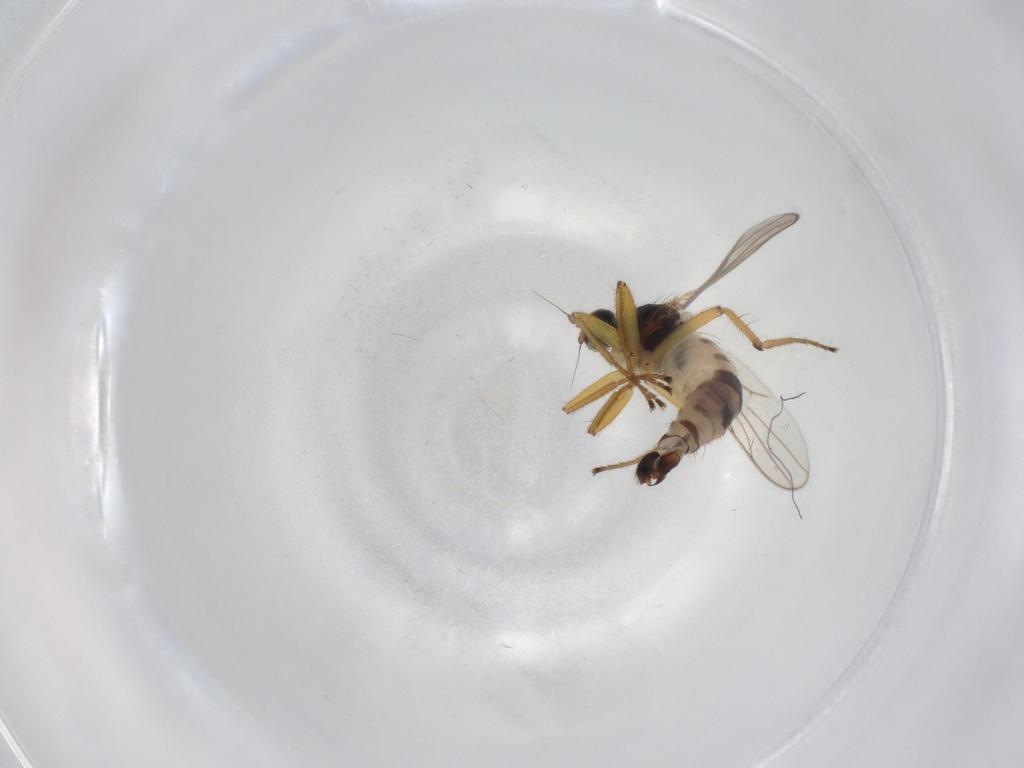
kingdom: Animalia
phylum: Arthropoda
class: Insecta
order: Diptera
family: Hybotidae
